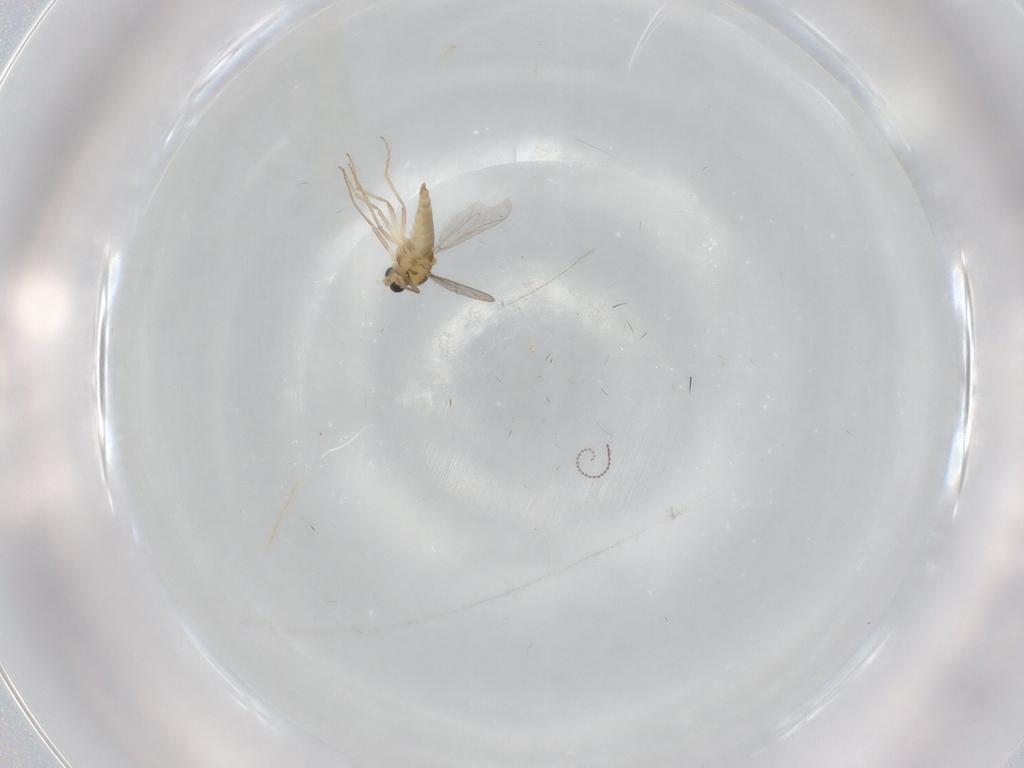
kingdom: Animalia
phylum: Arthropoda
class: Insecta
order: Diptera
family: Chironomidae
